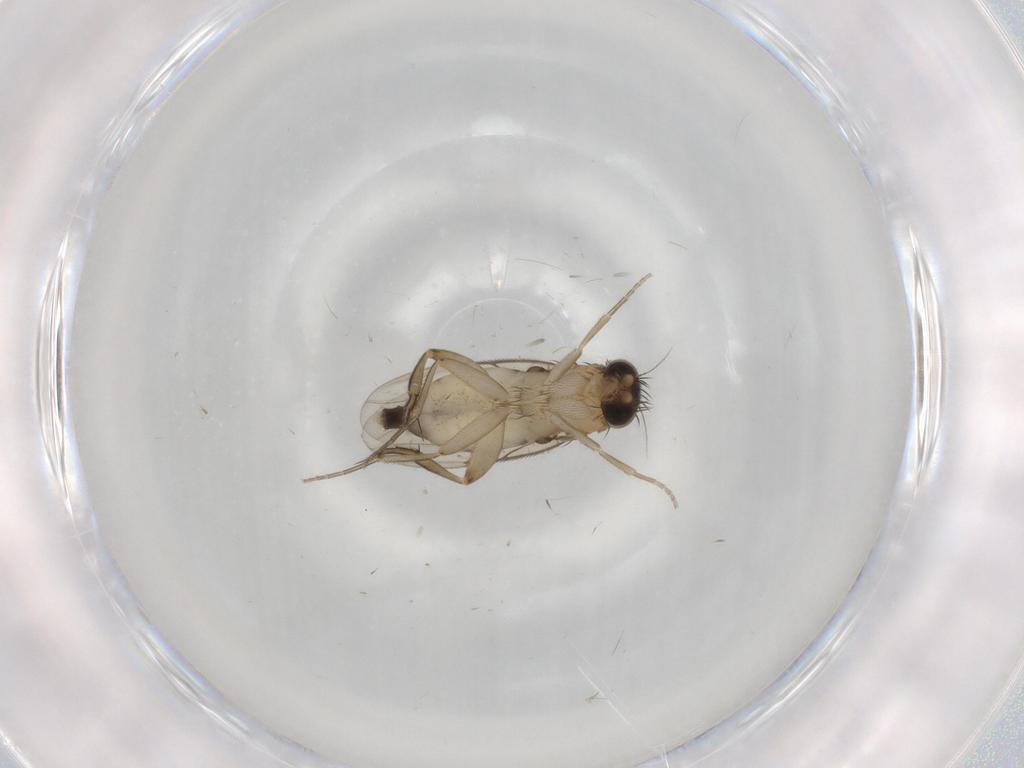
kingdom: Animalia
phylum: Arthropoda
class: Insecta
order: Diptera
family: Phoridae
